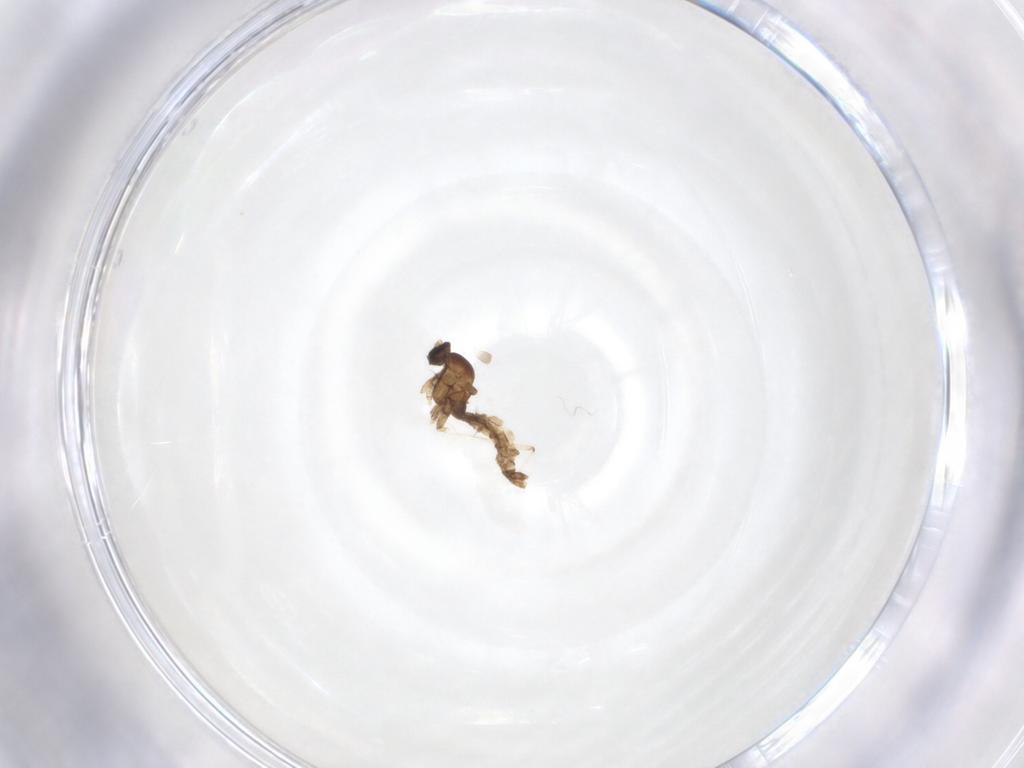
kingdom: Animalia
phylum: Arthropoda
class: Insecta
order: Diptera
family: Cecidomyiidae
